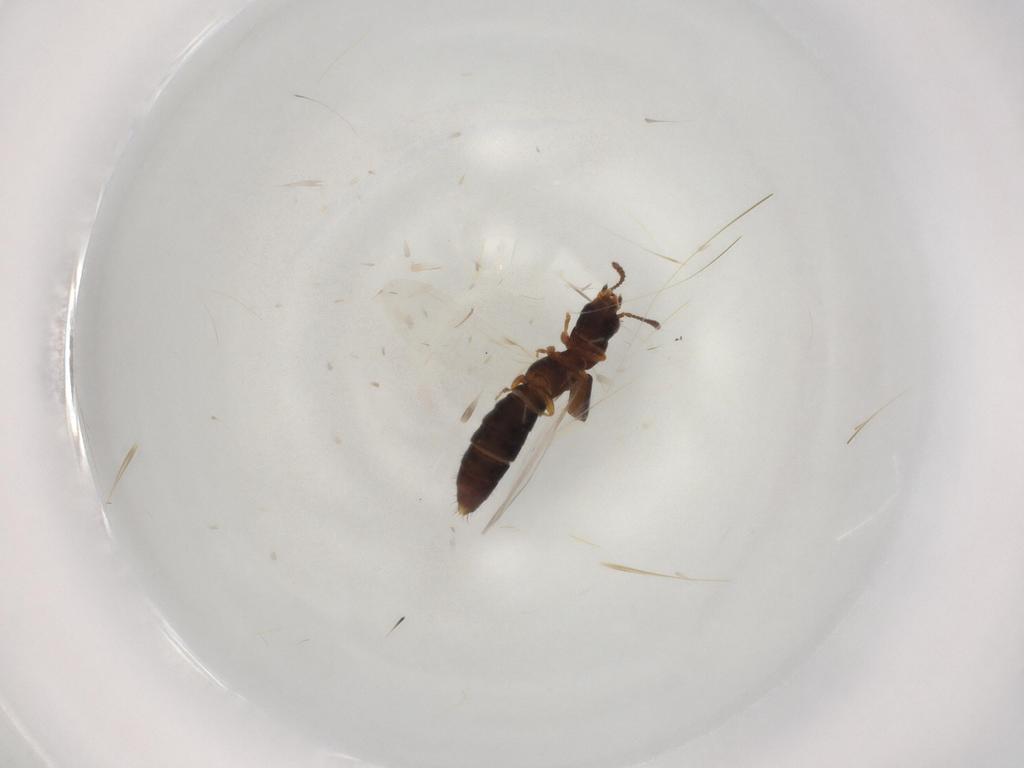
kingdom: Animalia
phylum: Arthropoda
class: Insecta
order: Coleoptera
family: Staphylinidae
